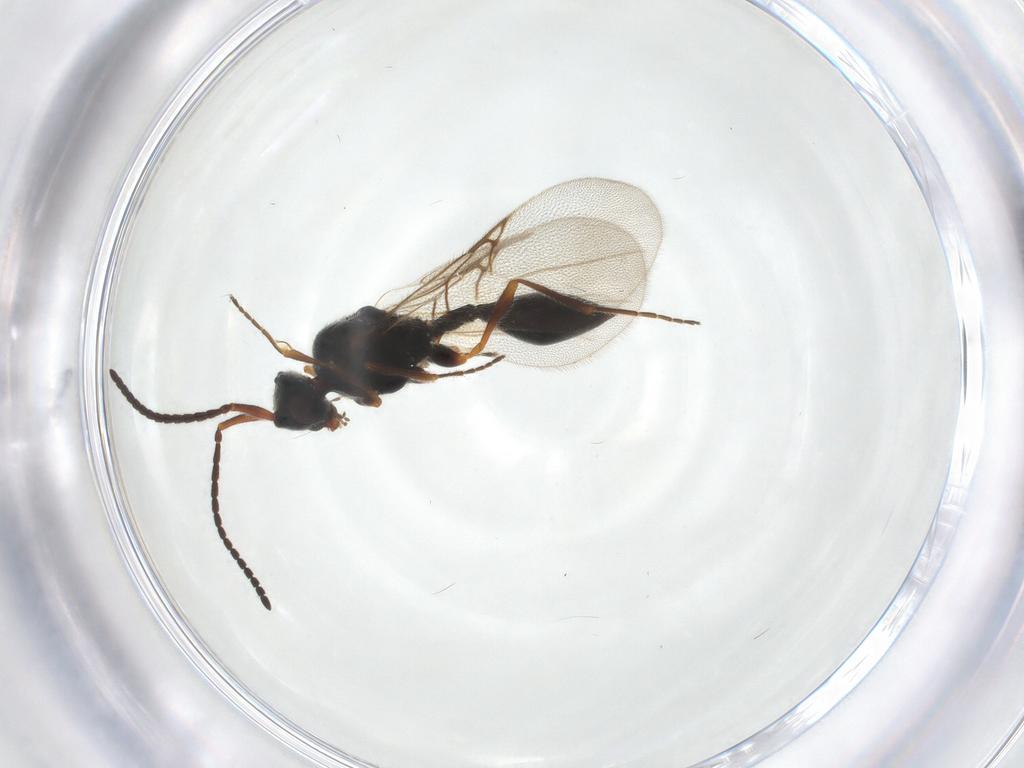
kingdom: Animalia
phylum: Arthropoda
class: Insecta
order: Hymenoptera
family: Diapriidae
